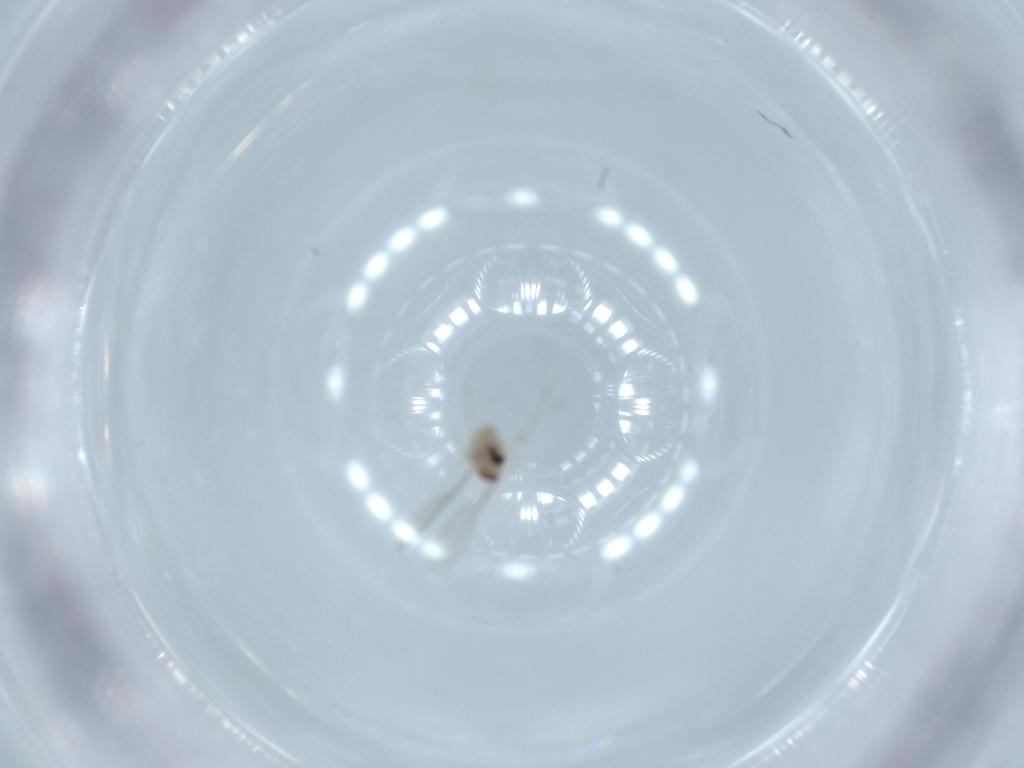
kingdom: Animalia
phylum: Arthropoda
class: Insecta
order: Diptera
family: Cecidomyiidae
